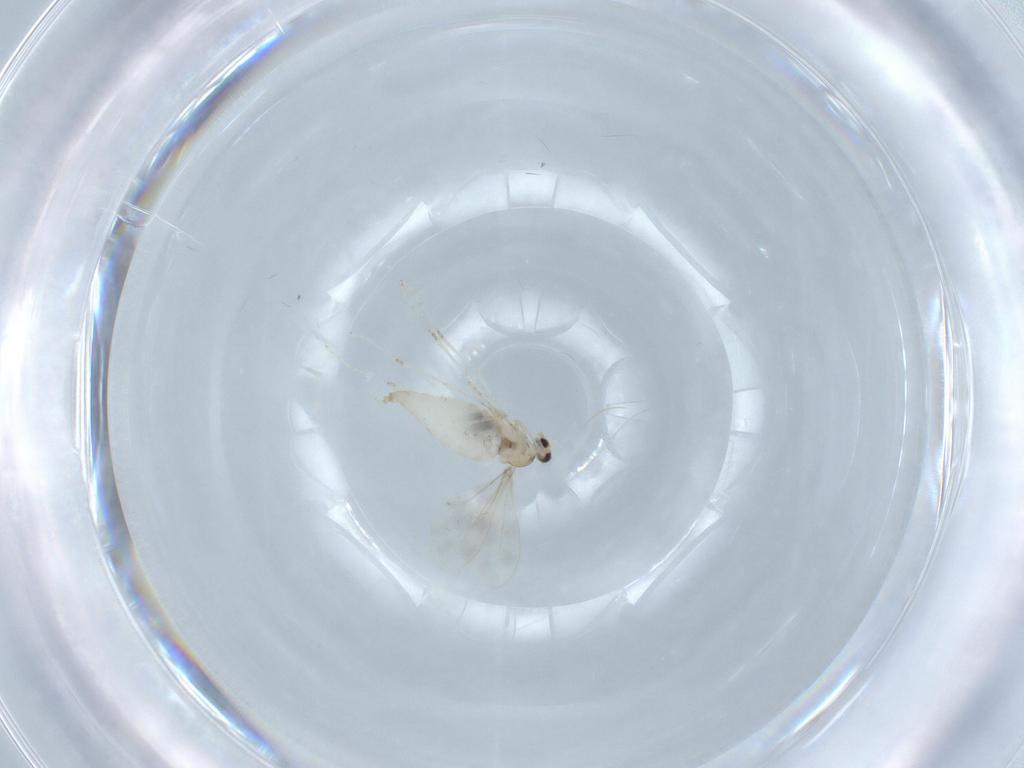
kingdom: Animalia
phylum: Arthropoda
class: Insecta
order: Diptera
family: Cecidomyiidae
